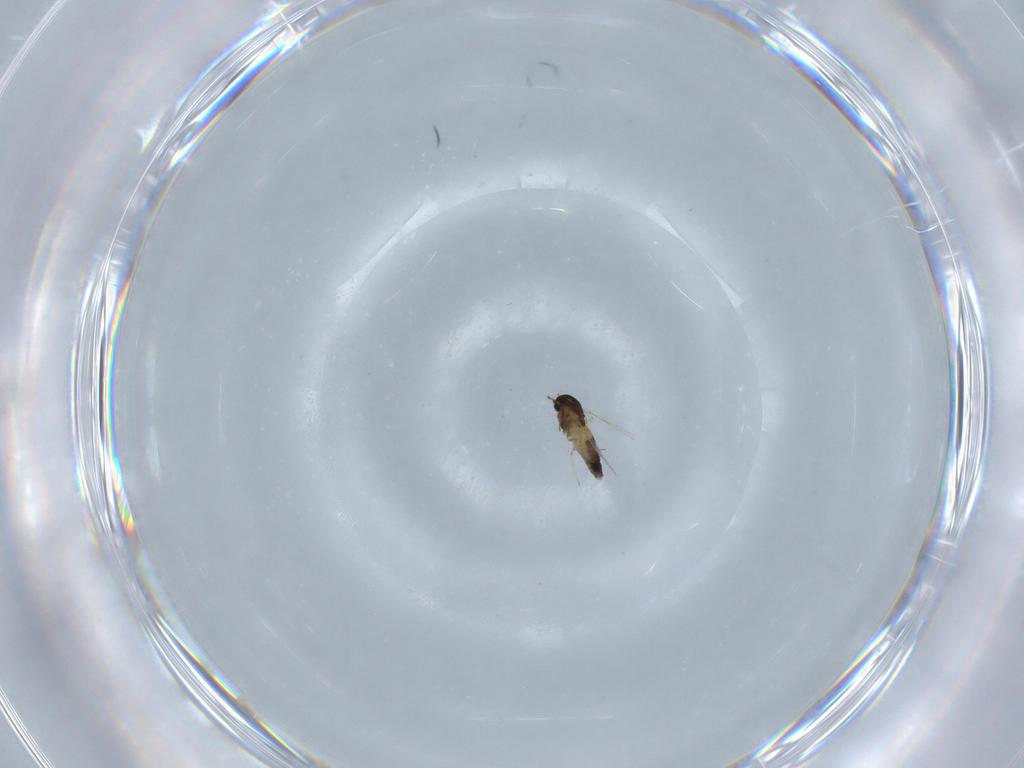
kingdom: Animalia
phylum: Arthropoda
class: Insecta
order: Diptera
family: Chironomidae
